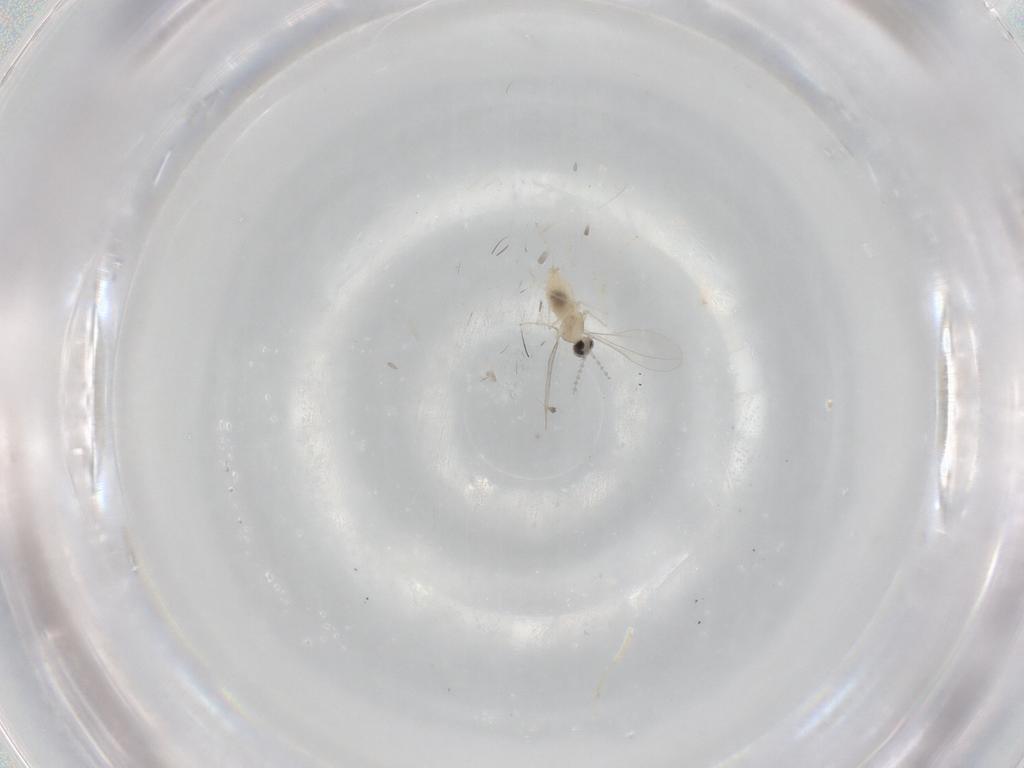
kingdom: Animalia
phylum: Arthropoda
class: Insecta
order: Diptera
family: Cecidomyiidae
